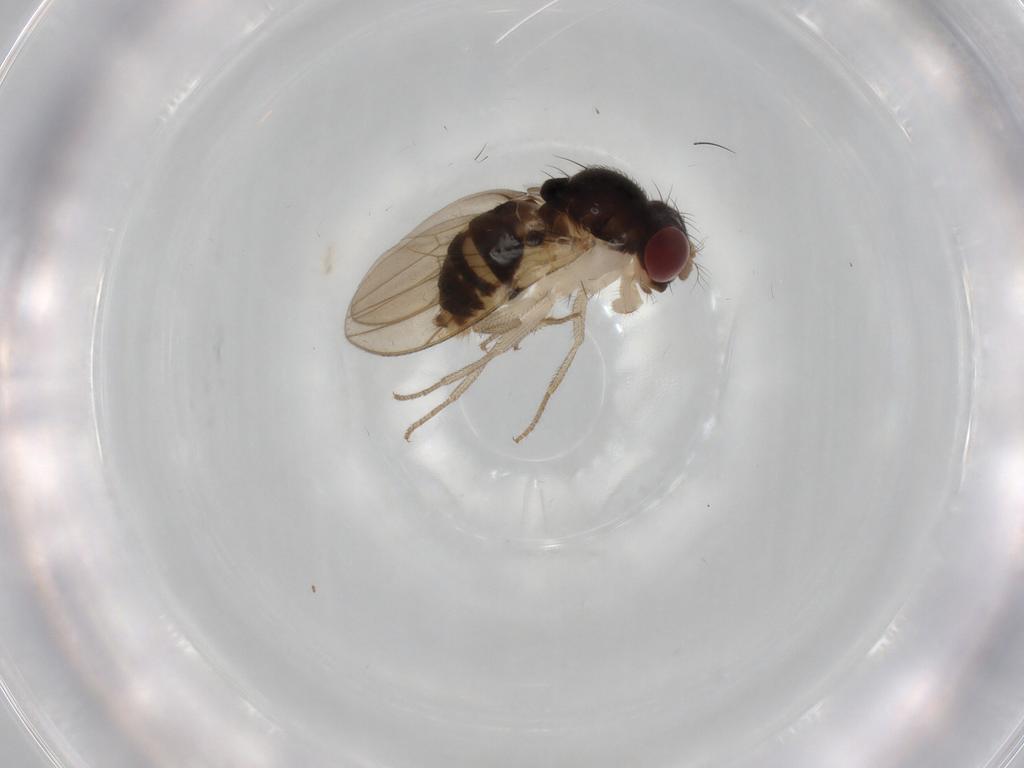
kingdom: Animalia
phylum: Arthropoda
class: Insecta
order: Diptera
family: Drosophilidae
